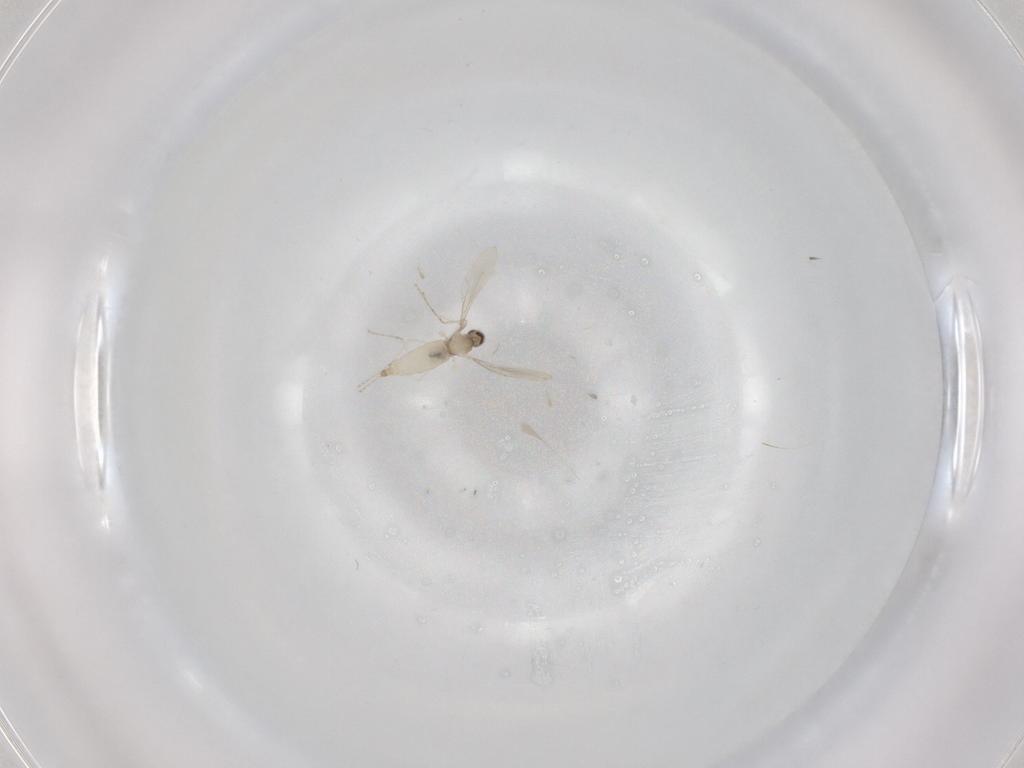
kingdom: Animalia
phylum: Arthropoda
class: Insecta
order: Diptera
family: Cecidomyiidae
